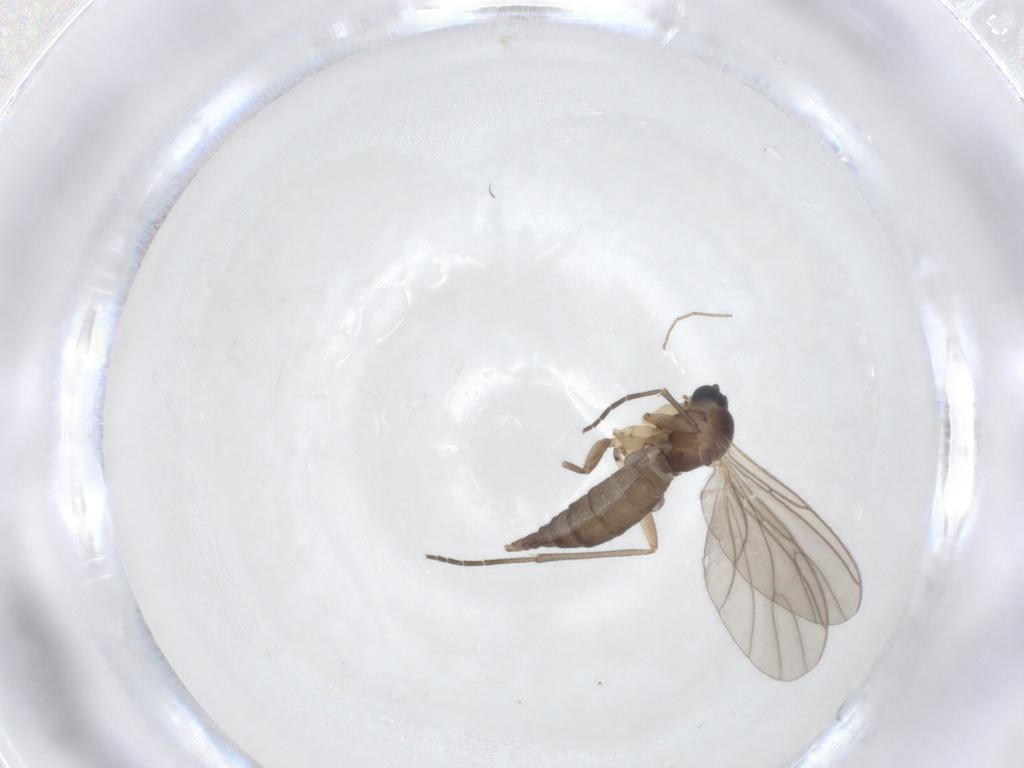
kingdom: Animalia
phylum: Arthropoda
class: Insecta
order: Diptera
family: Sciaridae
